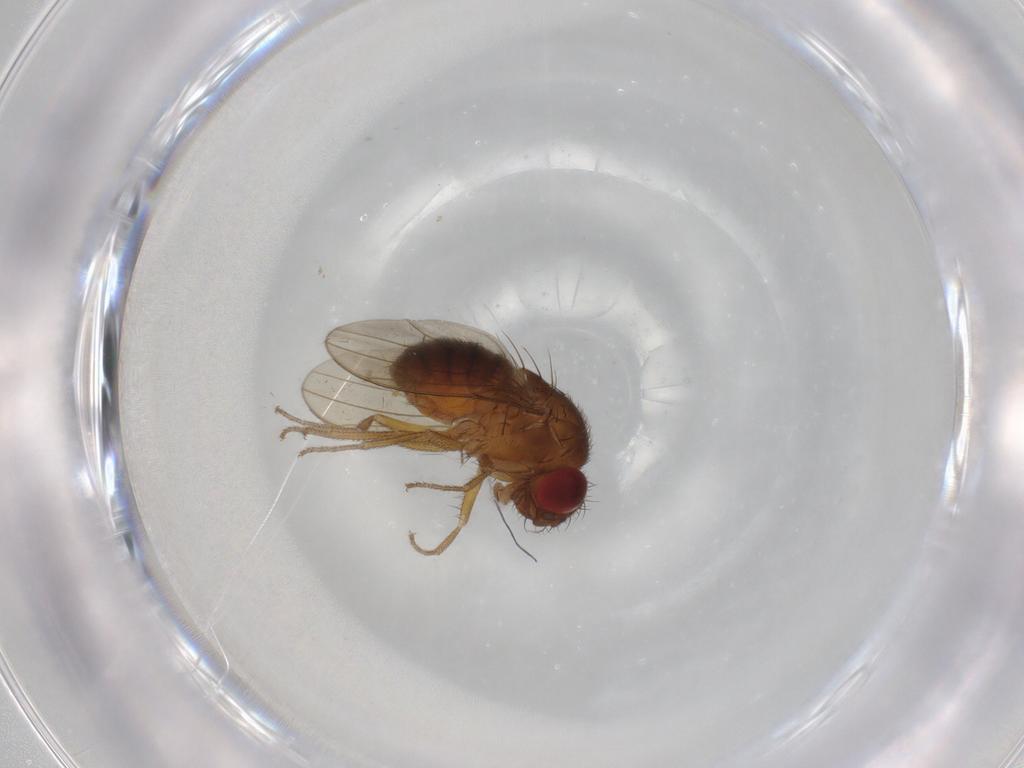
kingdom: Animalia
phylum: Arthropoda
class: Insecta
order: Diptera
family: Drosophilidae
